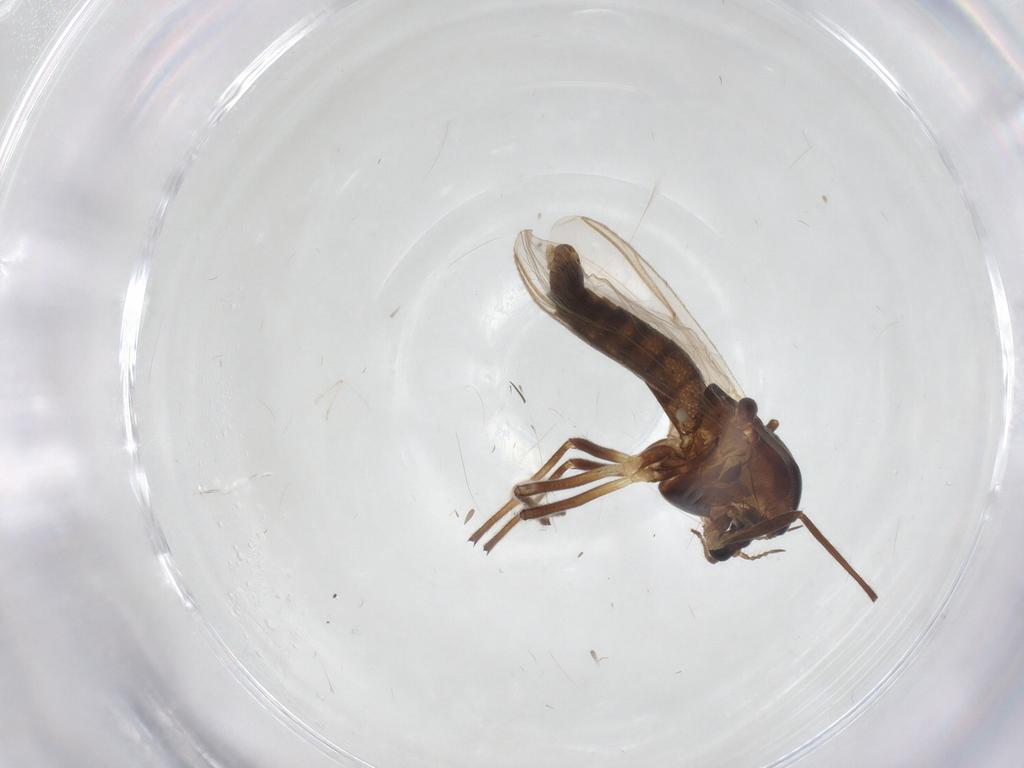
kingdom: Animalia
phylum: Arthropoda
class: Insecta
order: Diptera
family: Chironomidae
